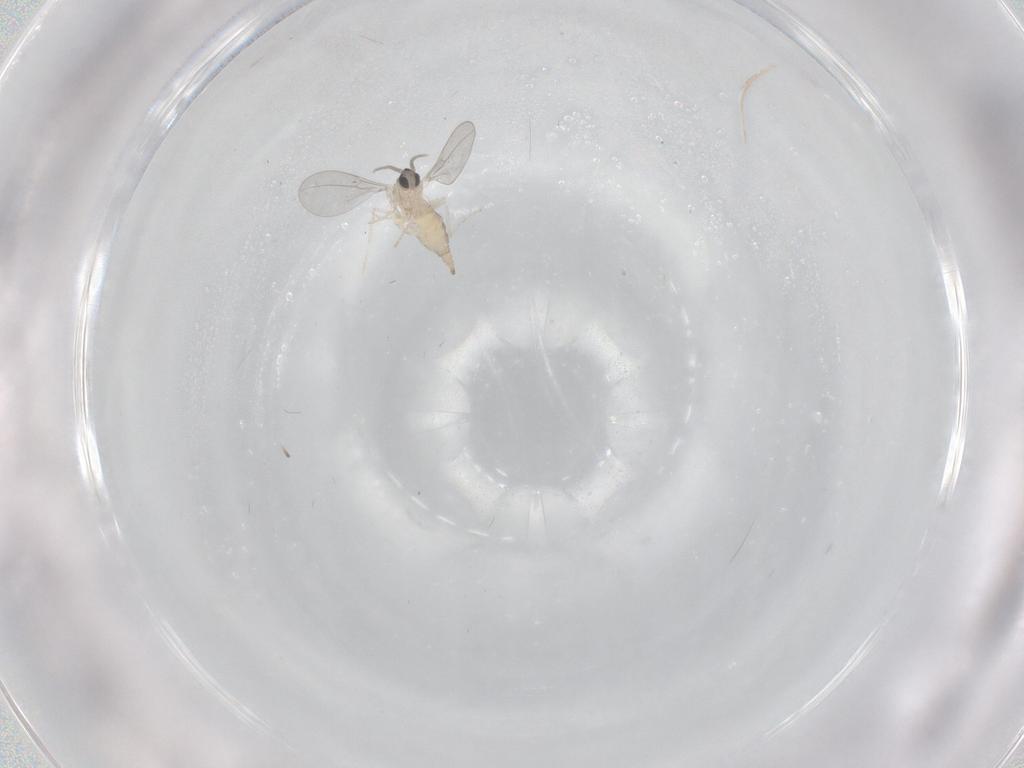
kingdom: Animalia
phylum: Arthropoda
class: Insecta
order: Diptera
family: Cecidomyiidae
